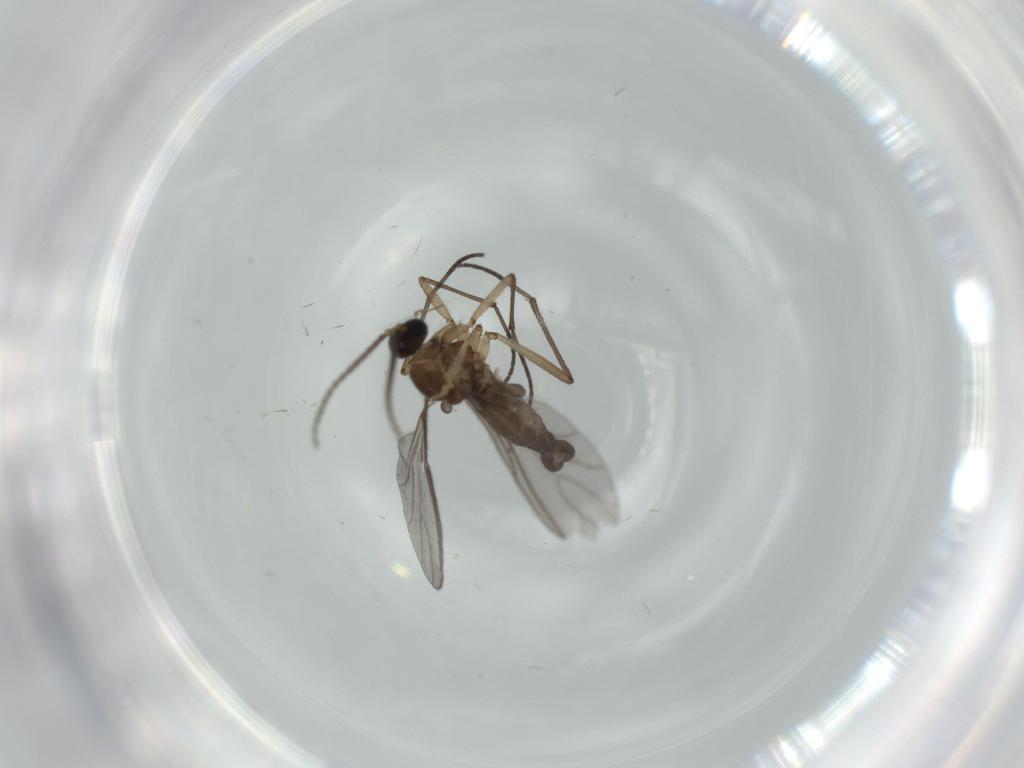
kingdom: Animalia
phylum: Arthropoda
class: Insecta
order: Diptera
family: Sciaridae
